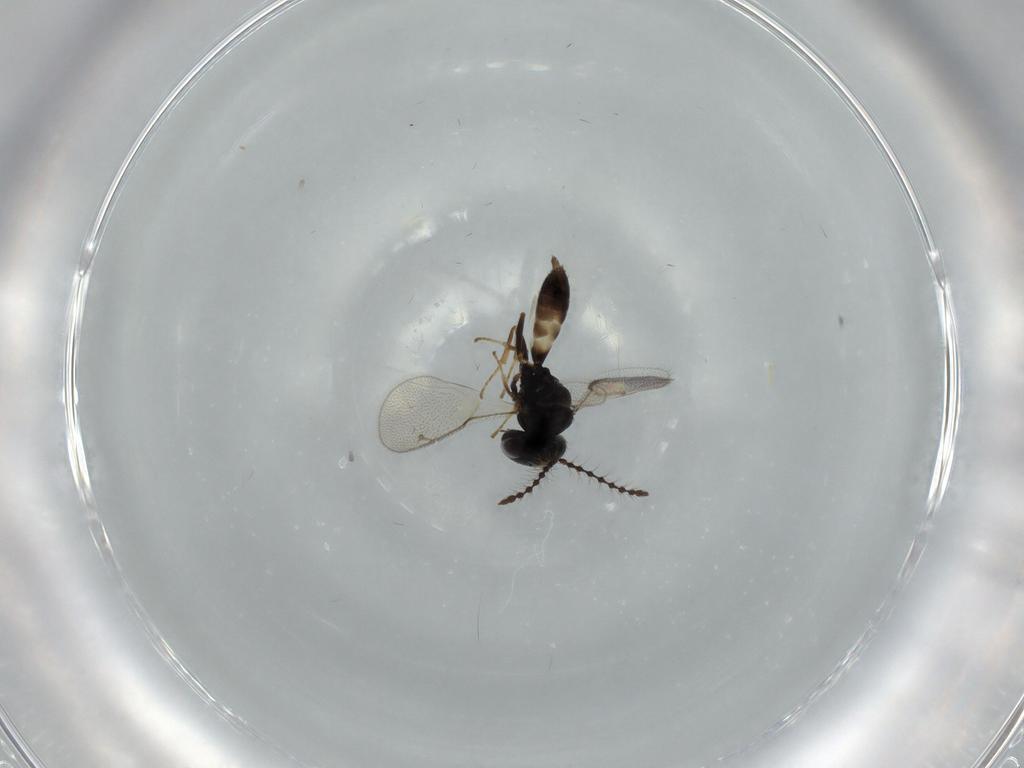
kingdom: Animalia
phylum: Arthropoda
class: Insecta
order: Hymenoptera
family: Pteromalidae
